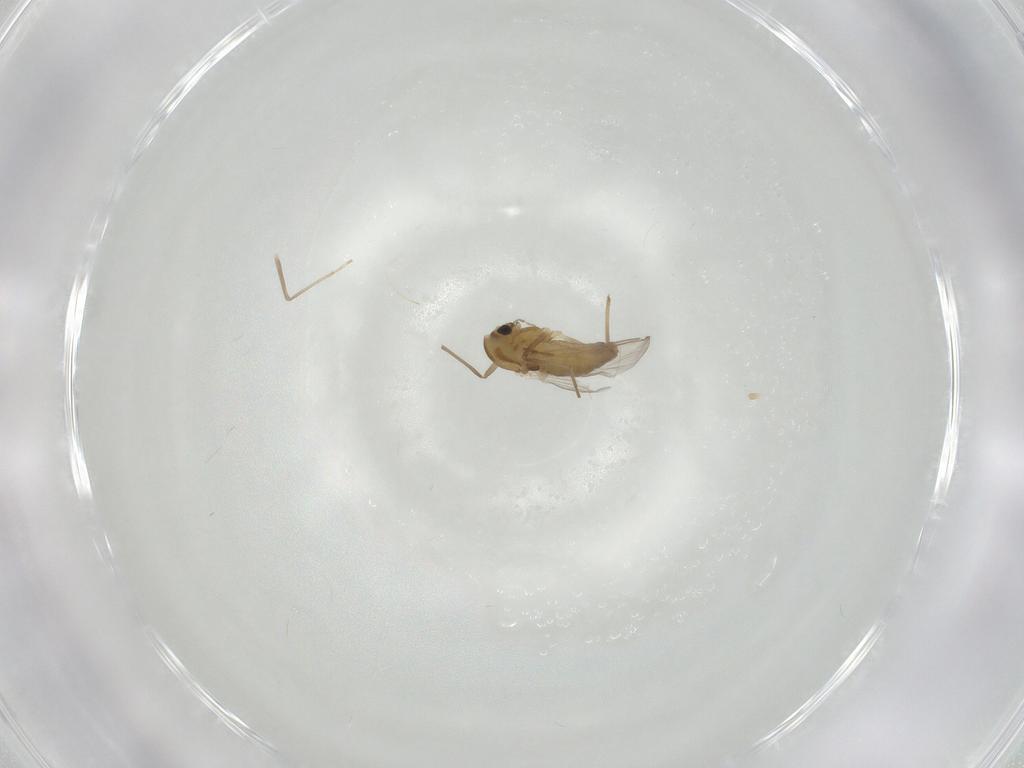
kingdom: Animalia
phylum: Arthropoda
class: Insecta
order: Diptera
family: Chironomidae
